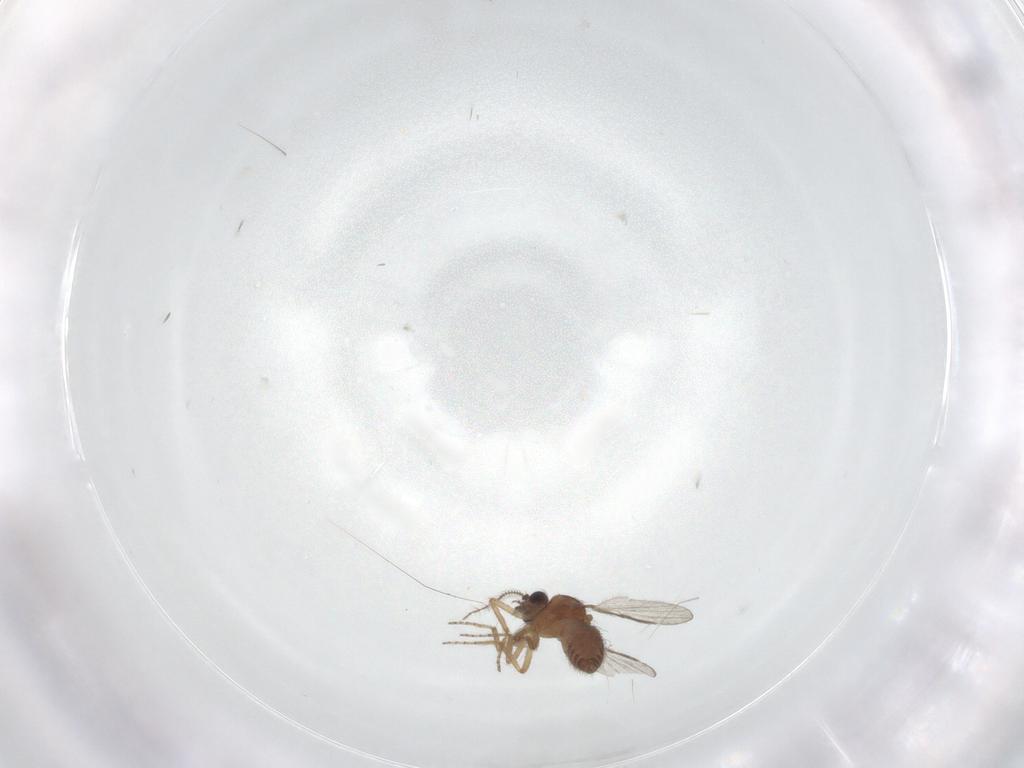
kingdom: Animalia
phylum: Arthropoda
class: Insecta
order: Diptera
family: Ceratopogonidae
